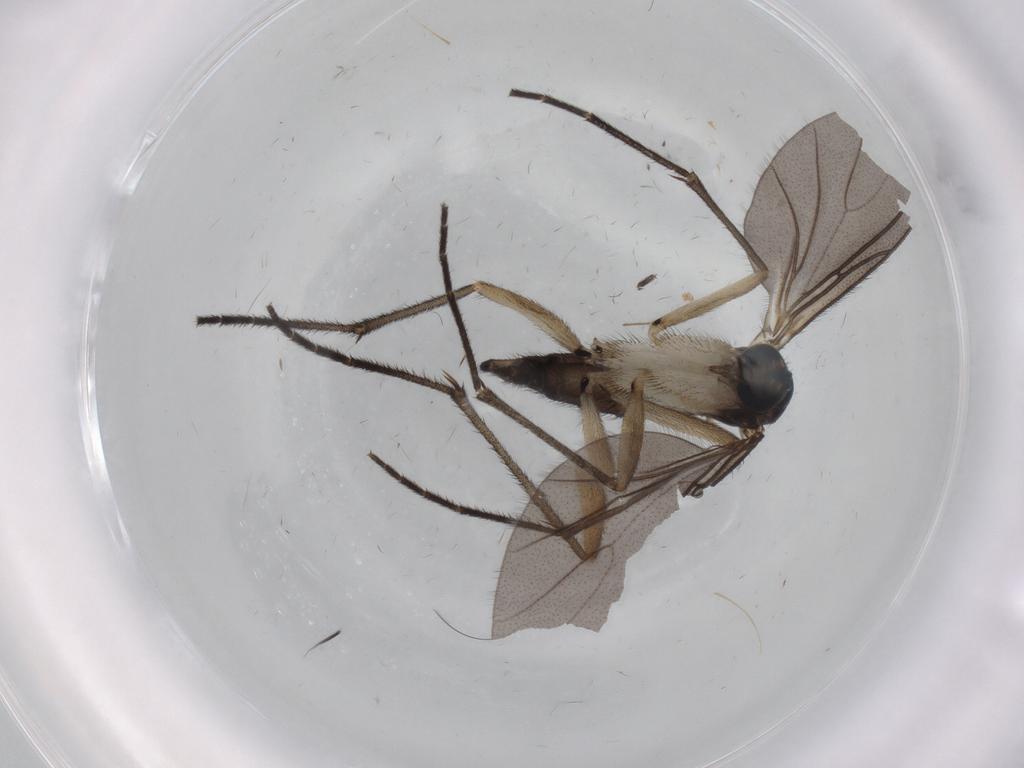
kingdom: Animalia
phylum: Arthropoda
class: Insecta
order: Diptera
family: Sciaridae
